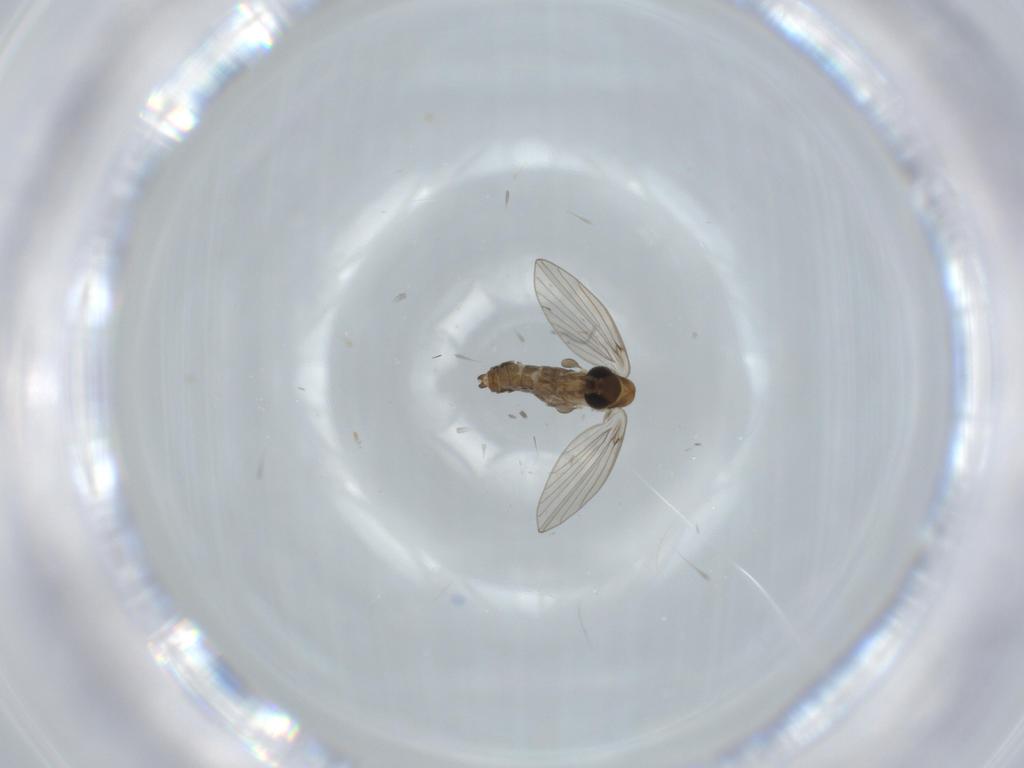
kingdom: Animalia
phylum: Arthropoda
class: Insecta
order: Diptera
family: Psychodidae
